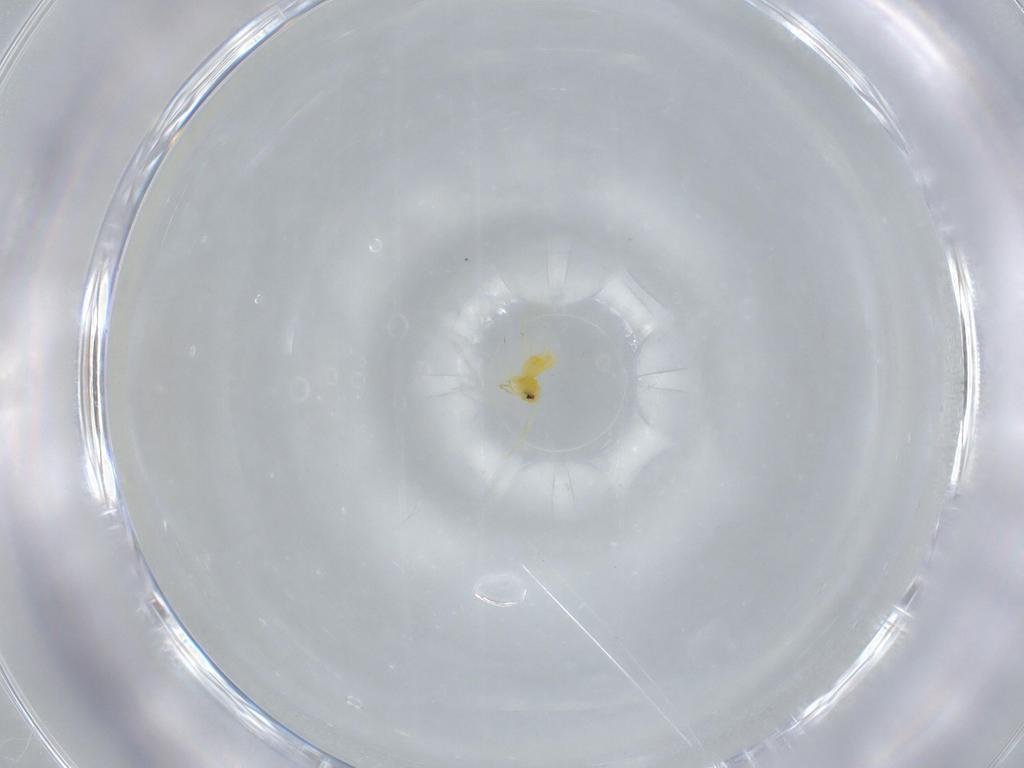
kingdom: Animalia
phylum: Arthropoda
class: Insecta
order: Hemiptera
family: Aleyrodidae
